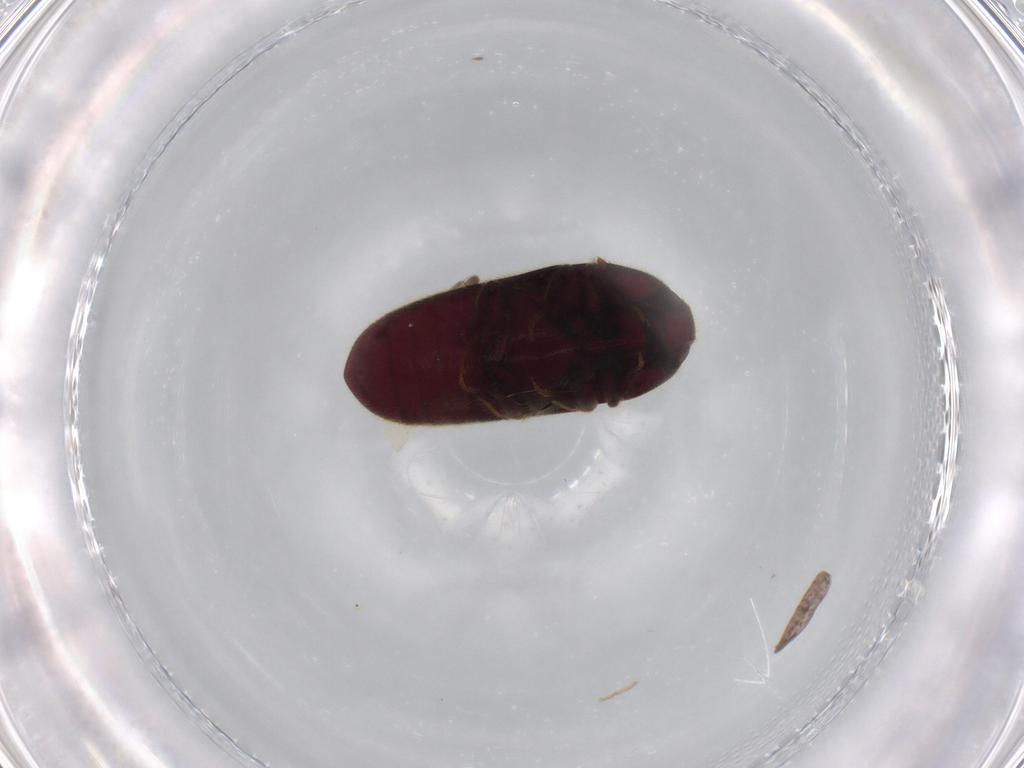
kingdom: Animalia
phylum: Arthropoda
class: Insecta
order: Coleoptera
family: Throscidae
